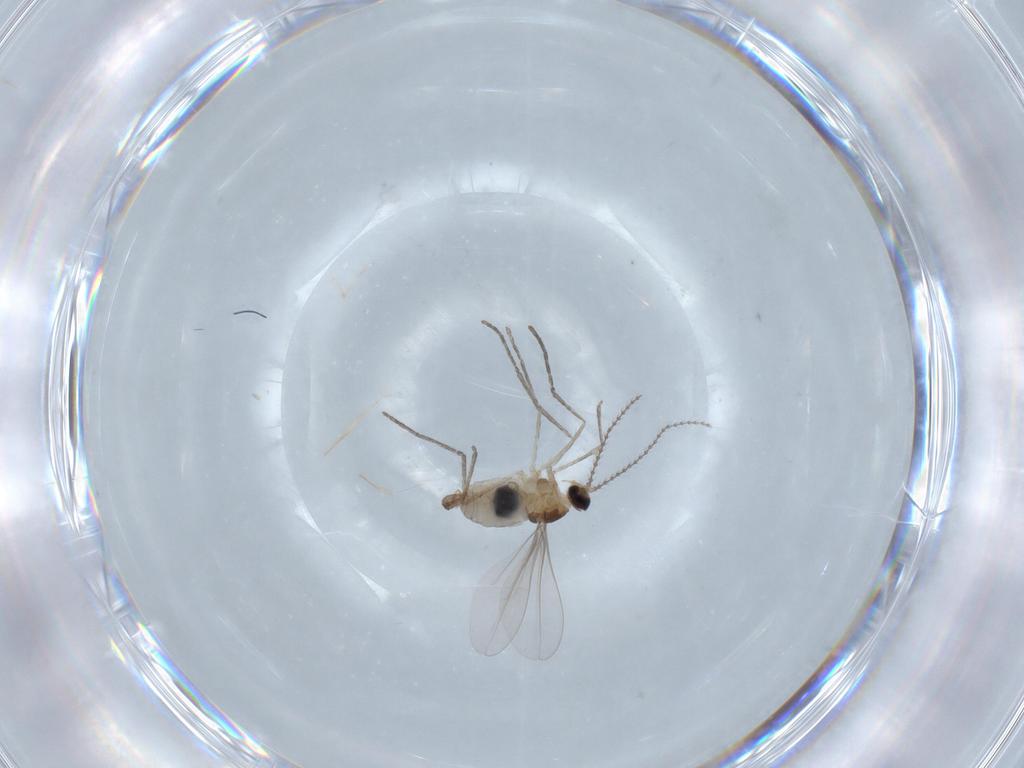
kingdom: Animalia
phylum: Arthropoda
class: Insecta
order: Diptera
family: Cecidomyiidae
